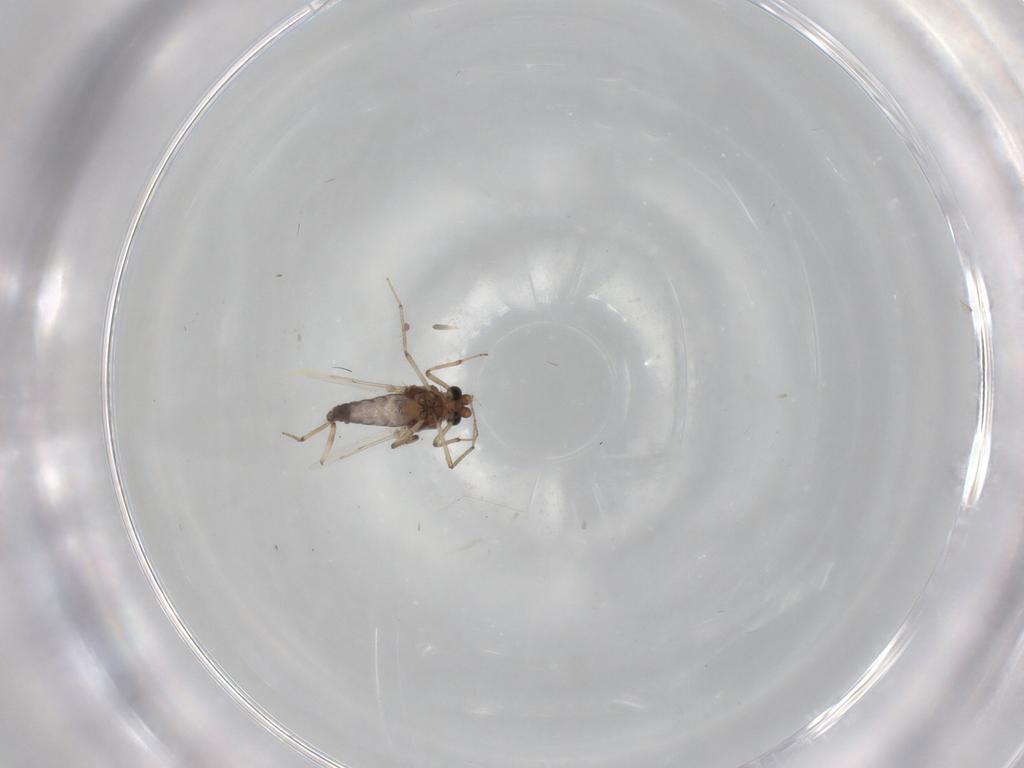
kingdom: Animalia
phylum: Arthropoda
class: Insecta
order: Diptera
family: Ceratopogonidae
